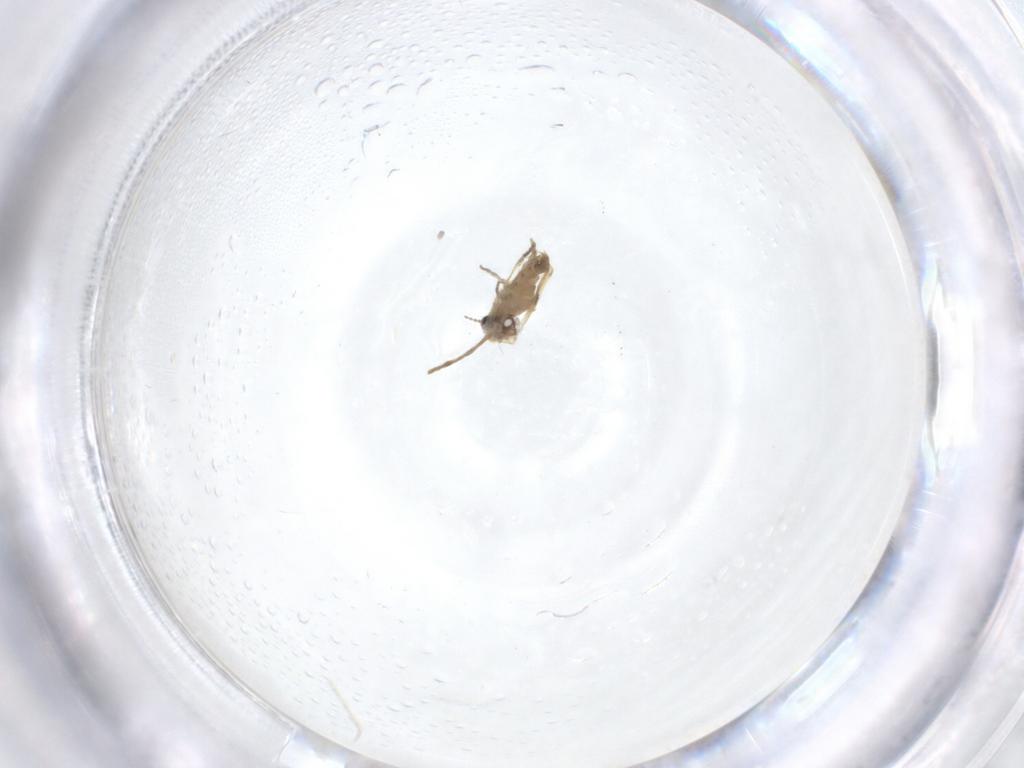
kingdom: Animalia
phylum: Arthropoda
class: Insecta
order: Diptera
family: Ceratopogonidae
